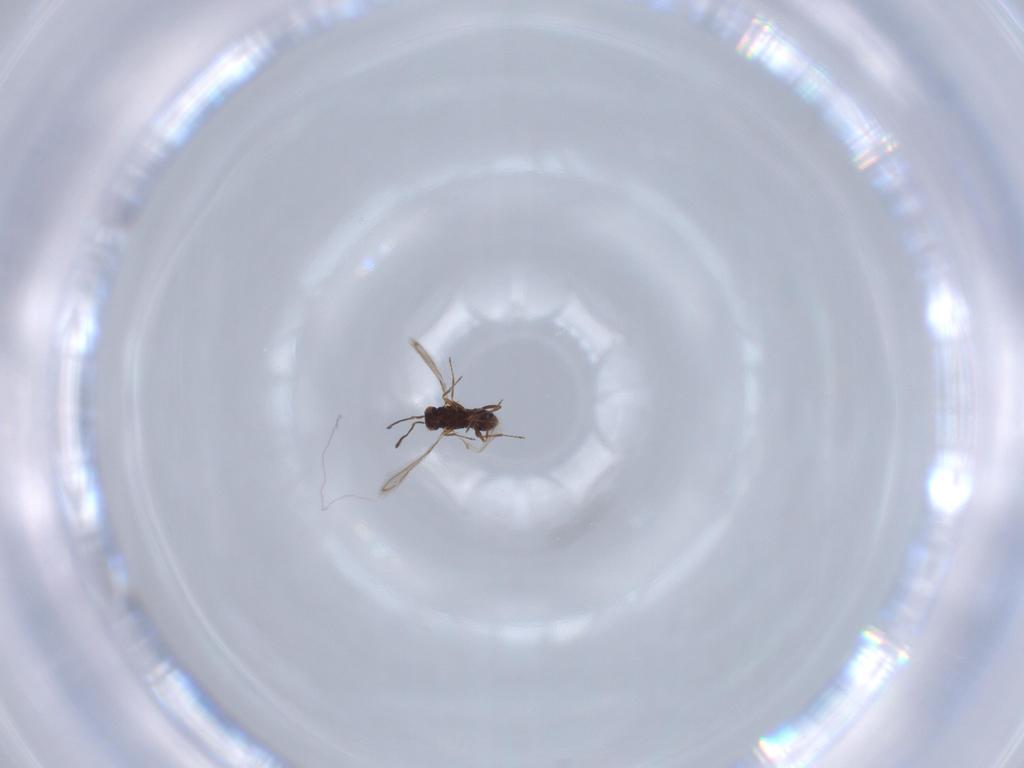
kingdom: Animalia
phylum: Arthropoda
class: Insecta
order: Hymenoptera
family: Mymaridae
